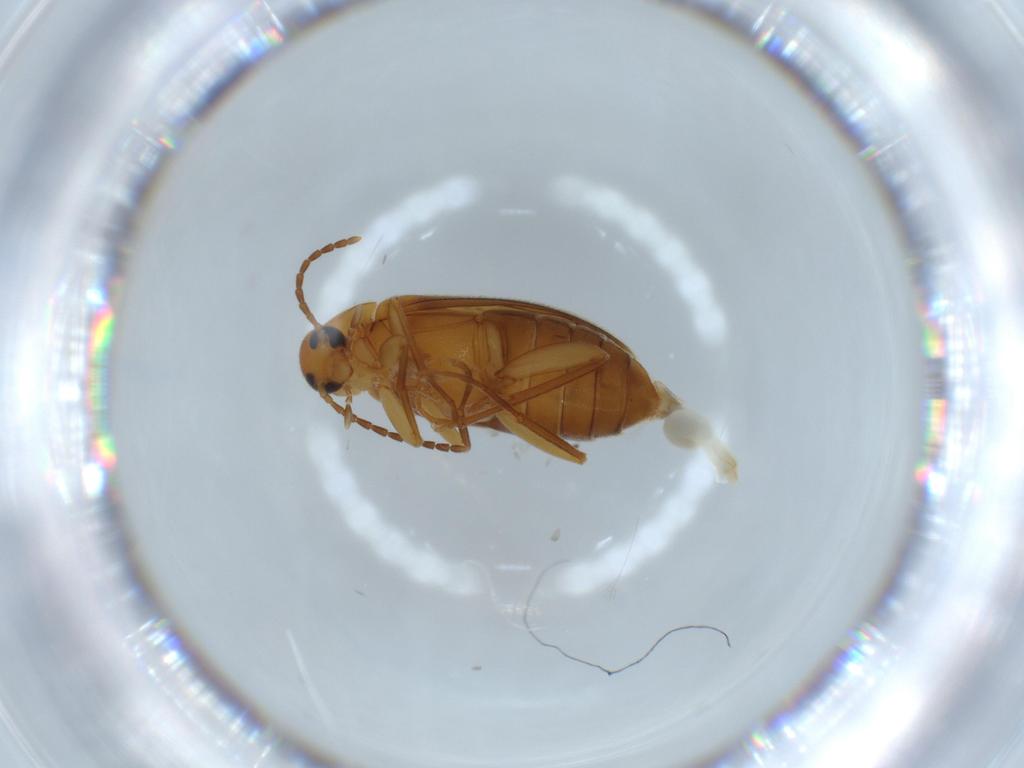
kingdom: Animalia
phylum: Arthropoda
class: Insecta
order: Coleoptera
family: Scraptiidae
